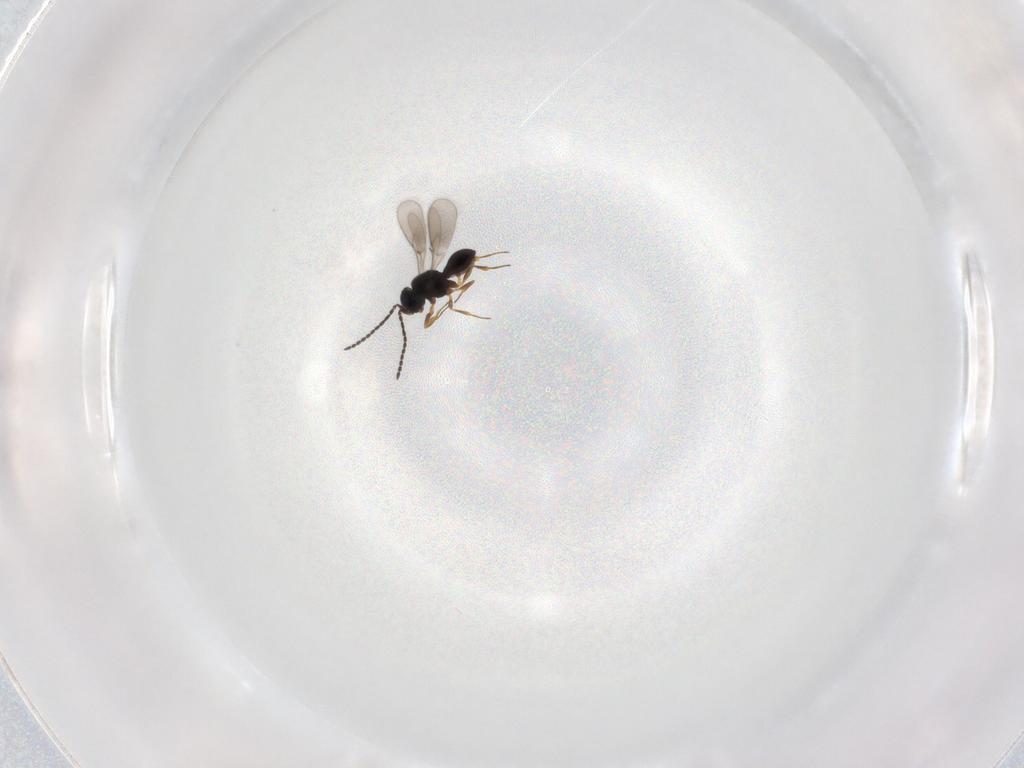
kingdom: Animalia
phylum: Arthropoda
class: Insecta
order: Hymenoptera
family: Scelionidae
